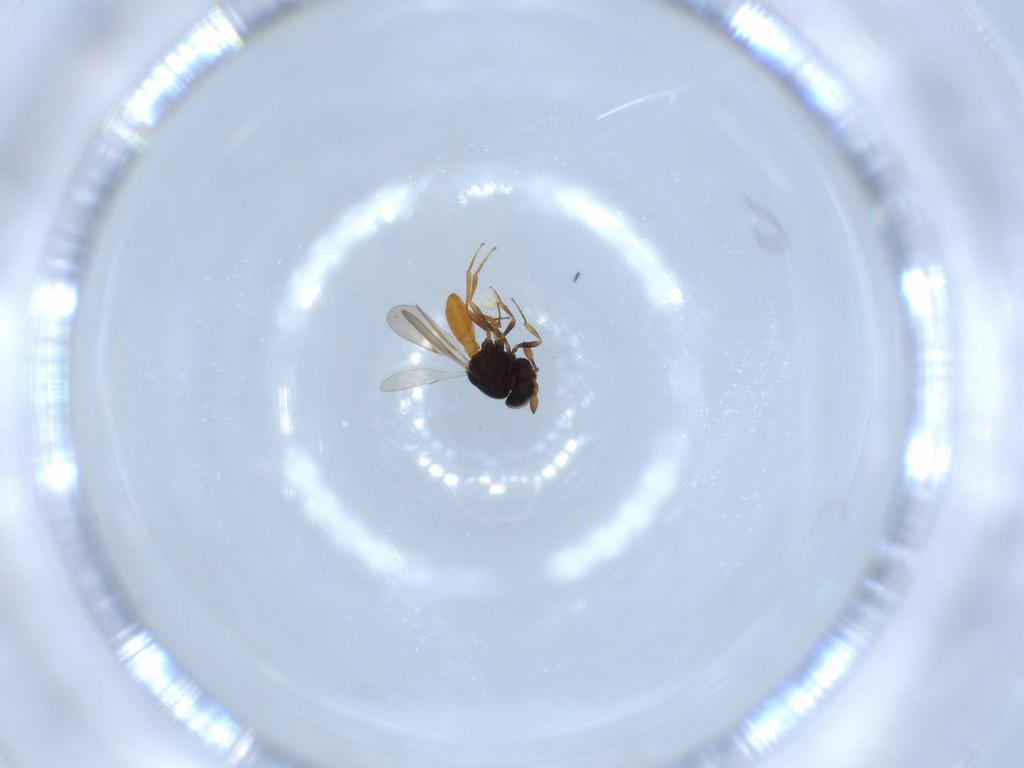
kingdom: Animalia
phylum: Arthropoda
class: Insecta
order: Hymenoptera
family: Scelionidae
